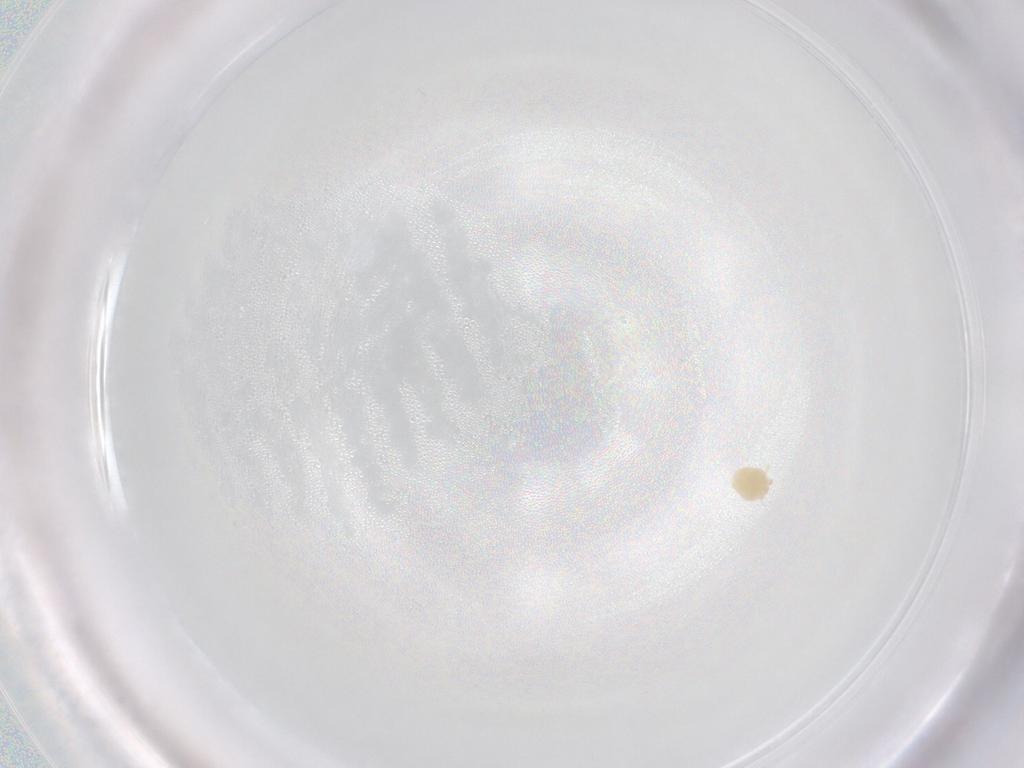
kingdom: Animalia
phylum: Arthropoda
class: Arachnida
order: Trombidiformes
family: Microtrombidiidae
